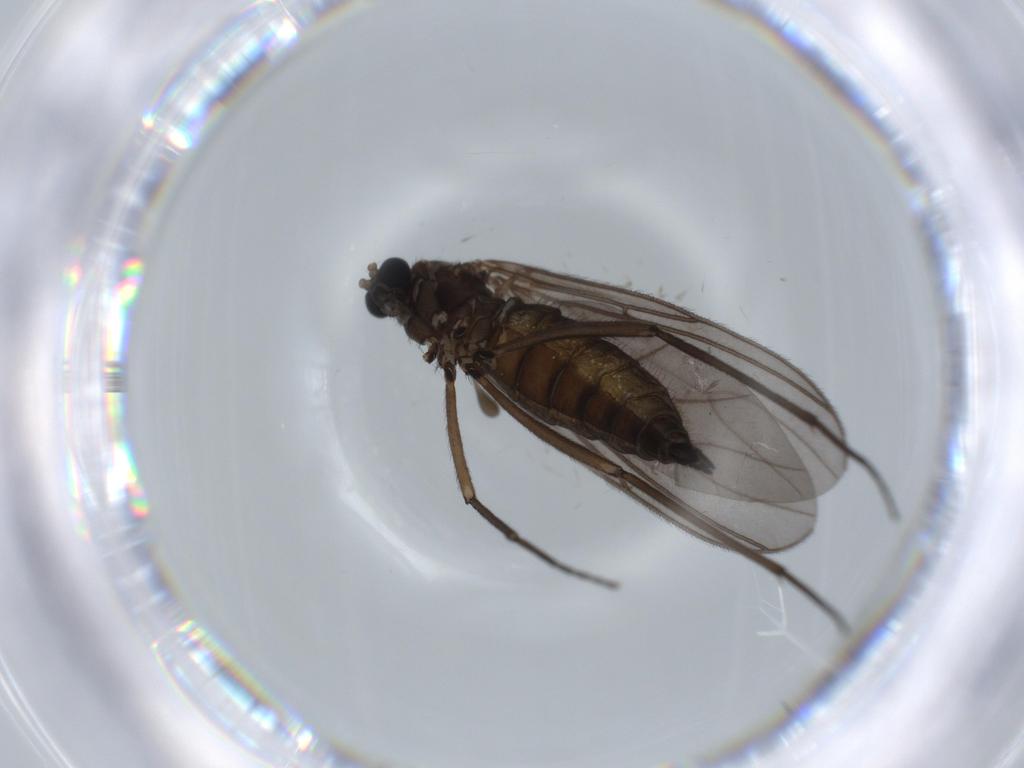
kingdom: Animalia
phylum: Arthropoda
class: Insecta
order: Diptera
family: Sciaridae
